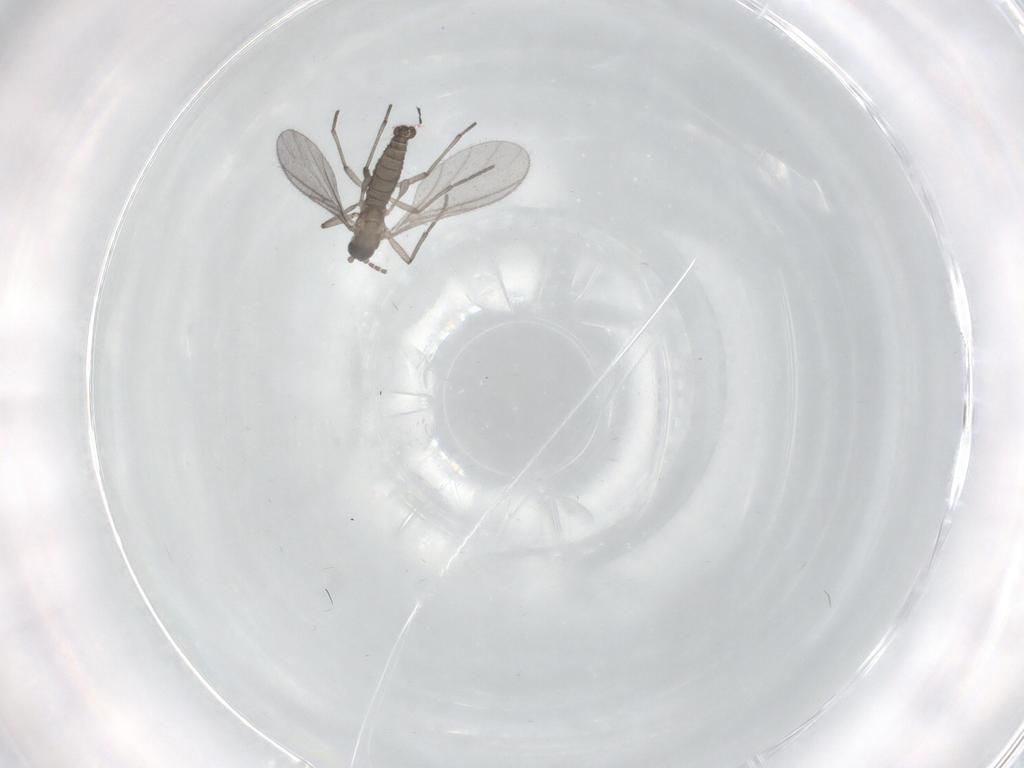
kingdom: Animalia
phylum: Arthropoda
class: Insecta
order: Diptera
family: Sciaridae
